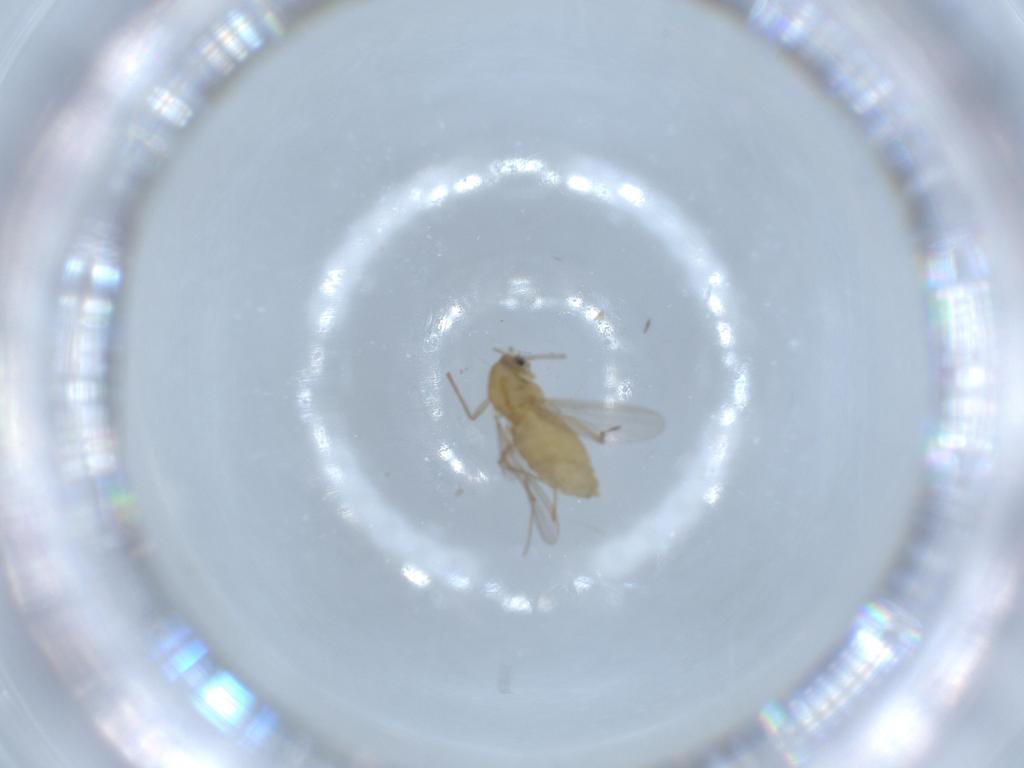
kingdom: Animalia
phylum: Arthropoda
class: Insecta
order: Diptera
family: Chironomidae
